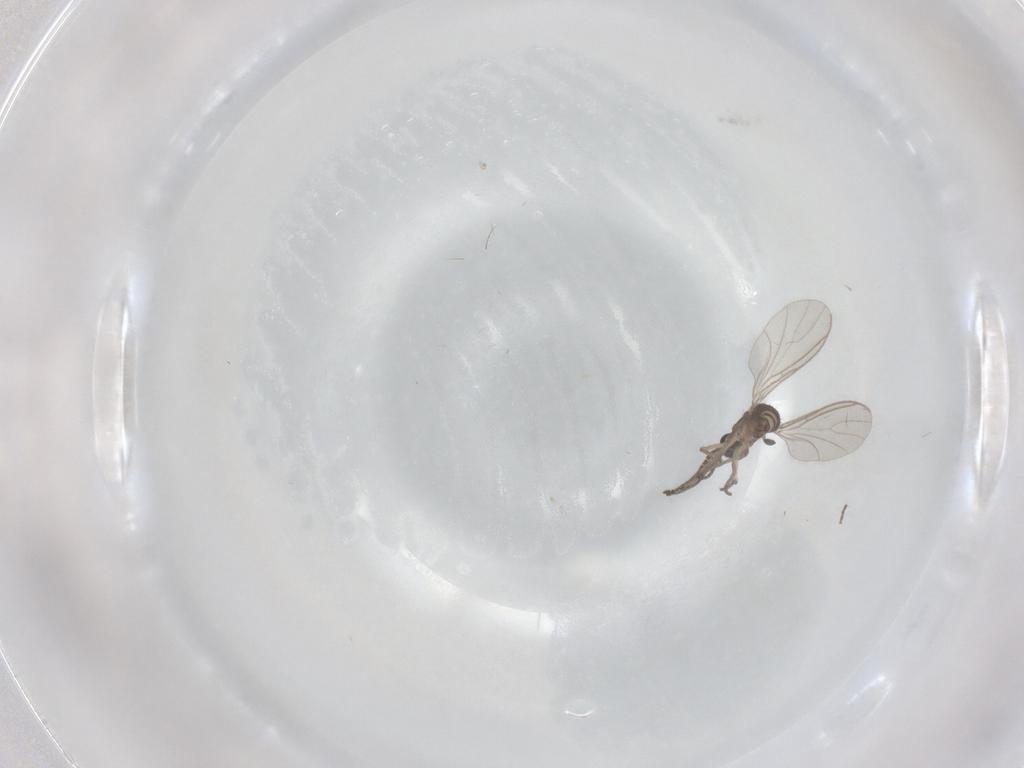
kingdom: Animalia
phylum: Arthropoda
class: Insecta
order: Diptera
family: Sciaridae
